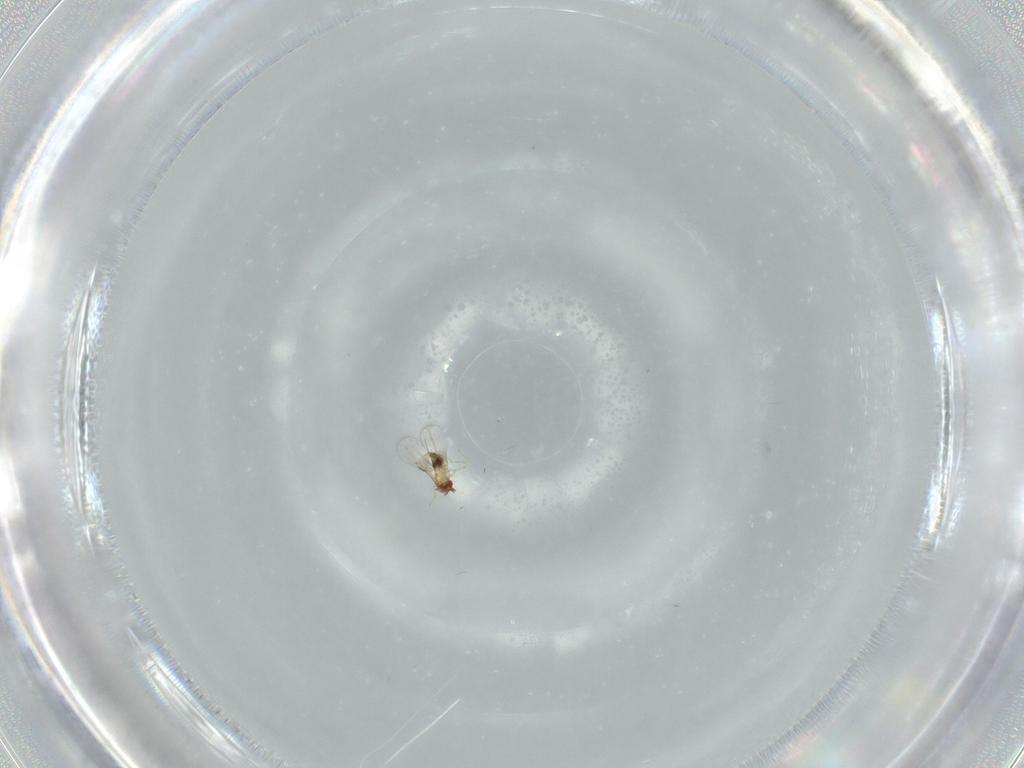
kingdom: Animalia
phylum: Arthropoda
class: Insecta
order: Hymenoptera
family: Trichogrammatidae
